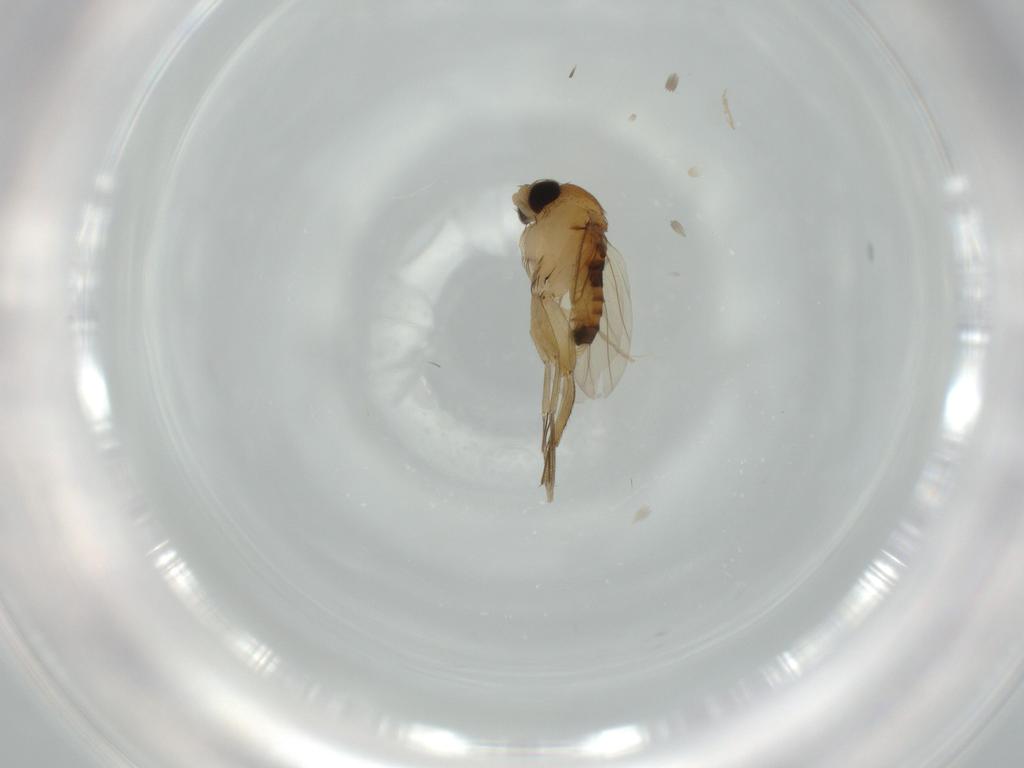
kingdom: Animalia
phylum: Arthropoda
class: Insecta
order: Diptera
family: Phoridae
